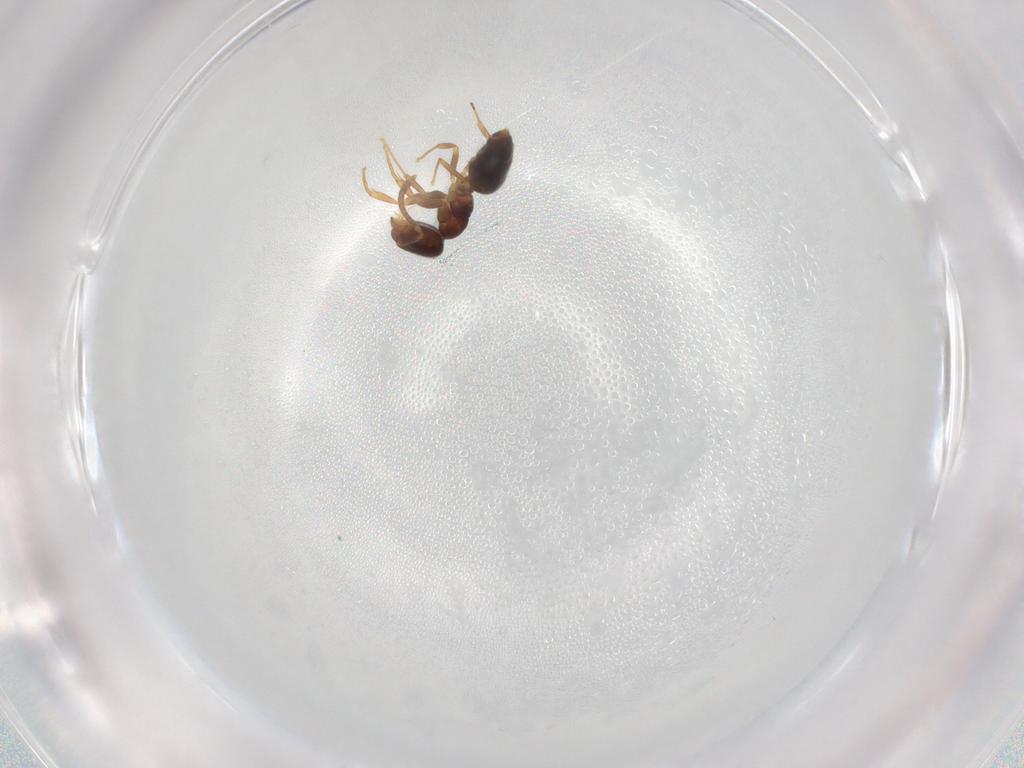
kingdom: Animalia
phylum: Arthropoda
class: Insecta
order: Hymenoptera
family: Formicidae
